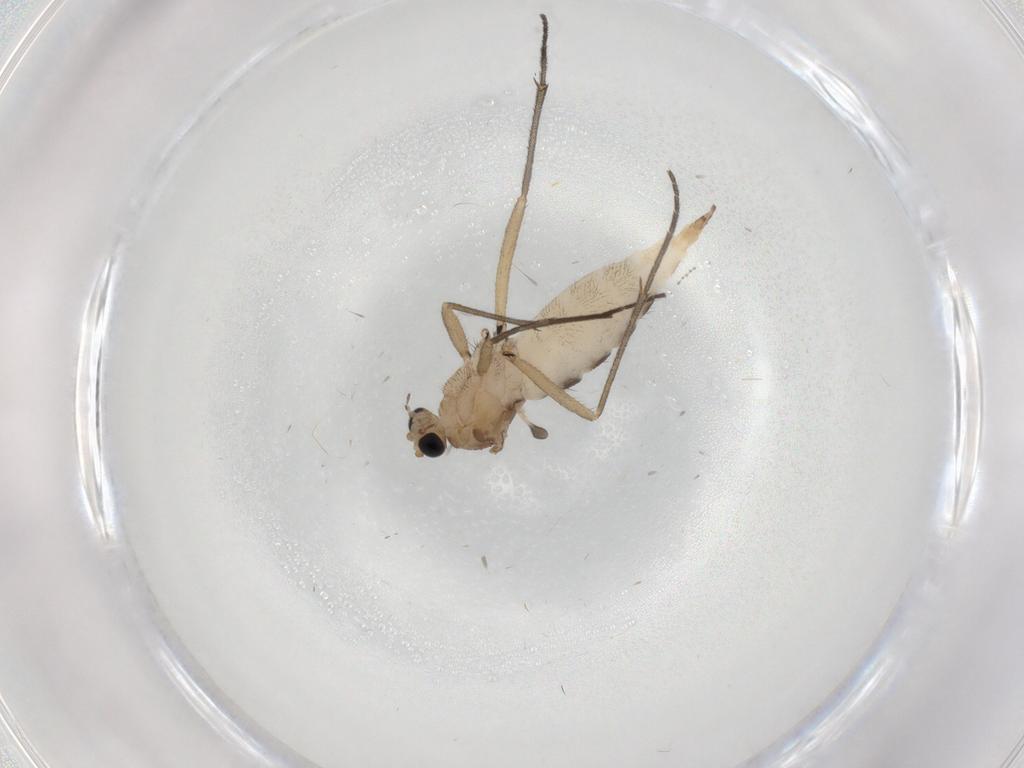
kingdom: Animalia
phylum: Arthropoda
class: Insecta
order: Diptera
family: Sciaridae
